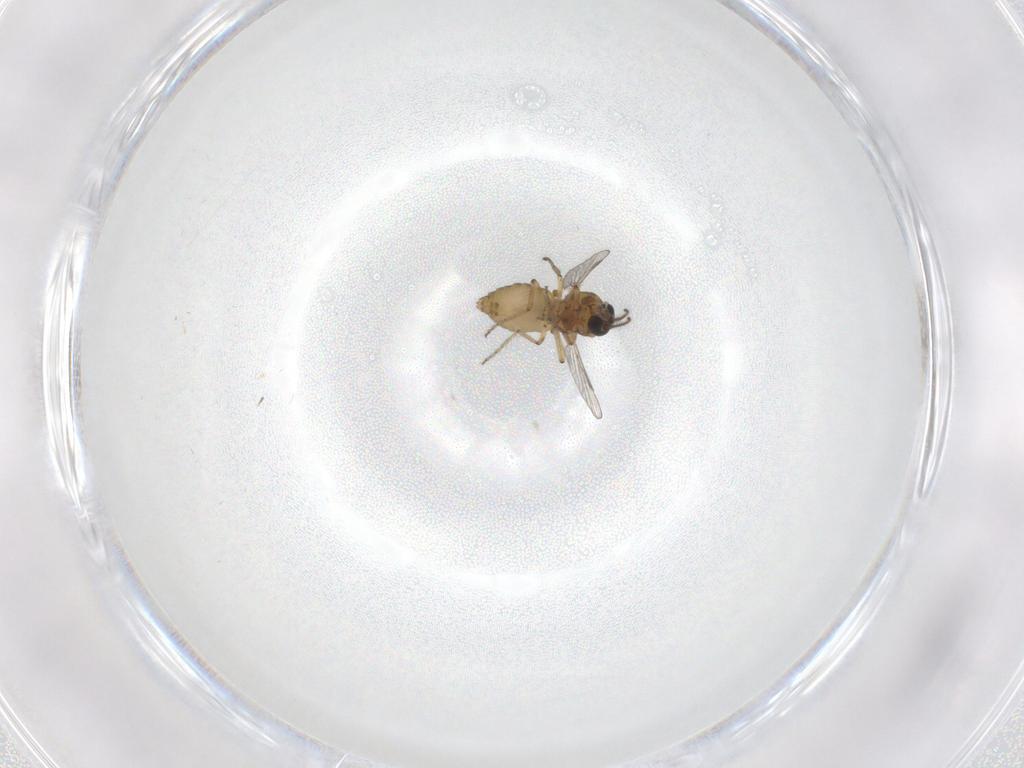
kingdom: Animalia
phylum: Arthropoda
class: Insecta
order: Diptera
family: Ceratopogonidae
